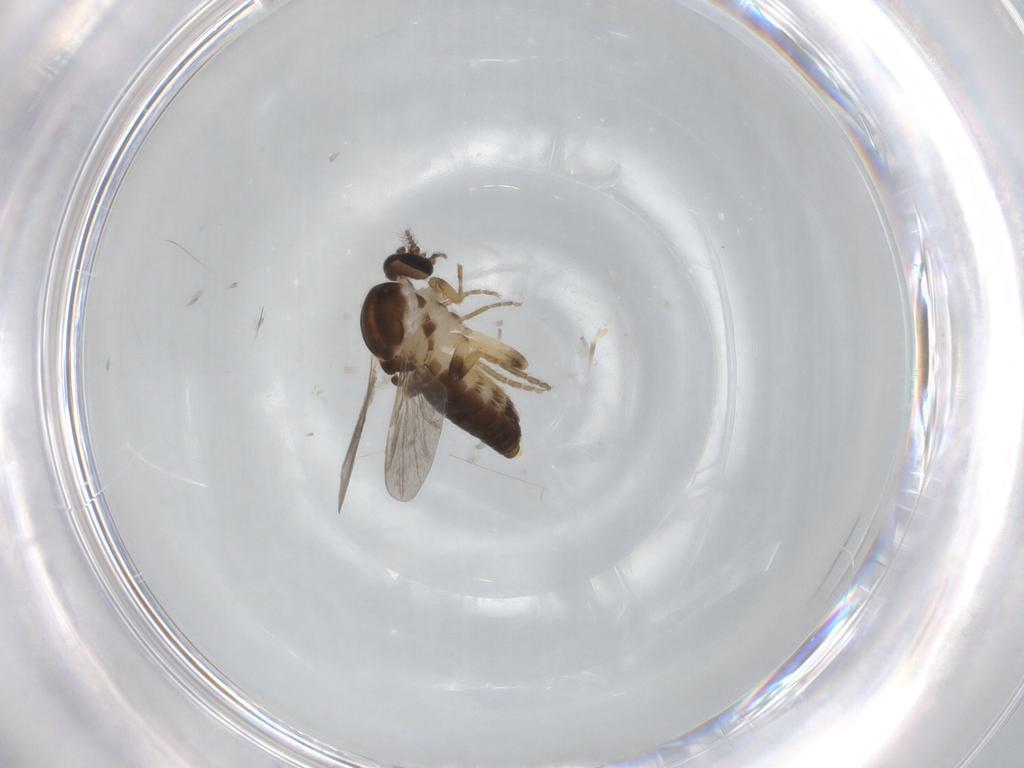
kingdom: Animalia
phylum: Arthropoda
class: Insecta
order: Diptera
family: Ceratopogonidae
